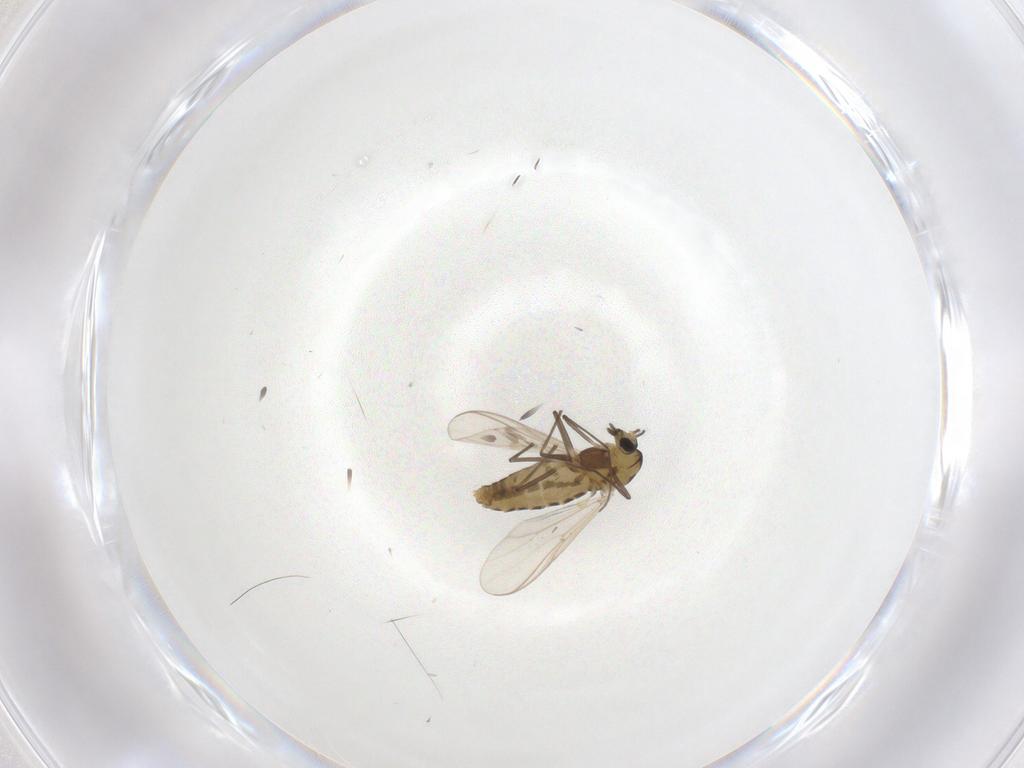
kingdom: Animalia
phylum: Arthropoda
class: Insecta
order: Diptera
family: Chironomidae
